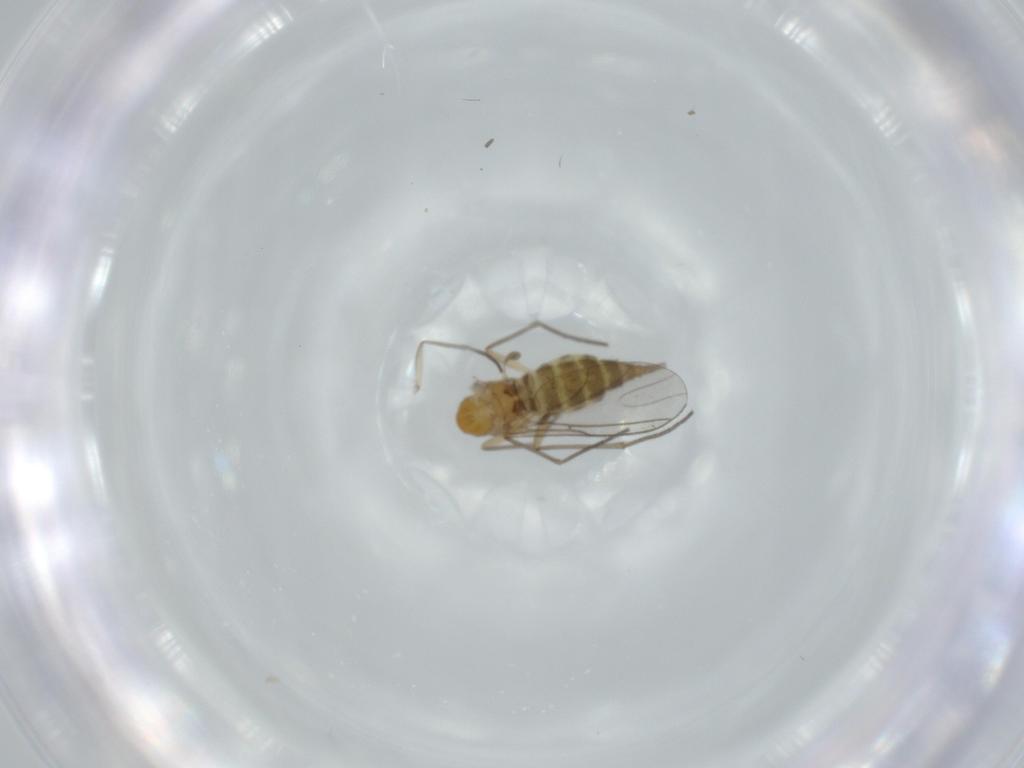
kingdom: Animalia
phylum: Arthropoda
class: Insecta
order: Diptera
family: Sciaridae
